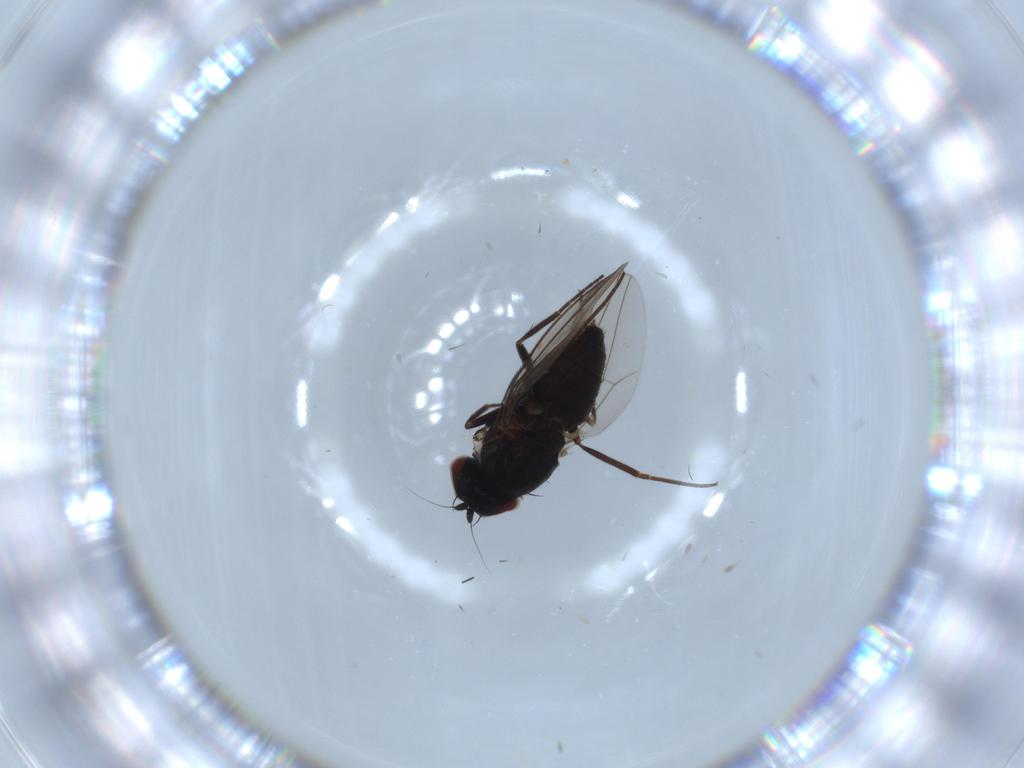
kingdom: Animalia
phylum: Arthropoda
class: Insecta
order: Diptera
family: Dolichopodidae
